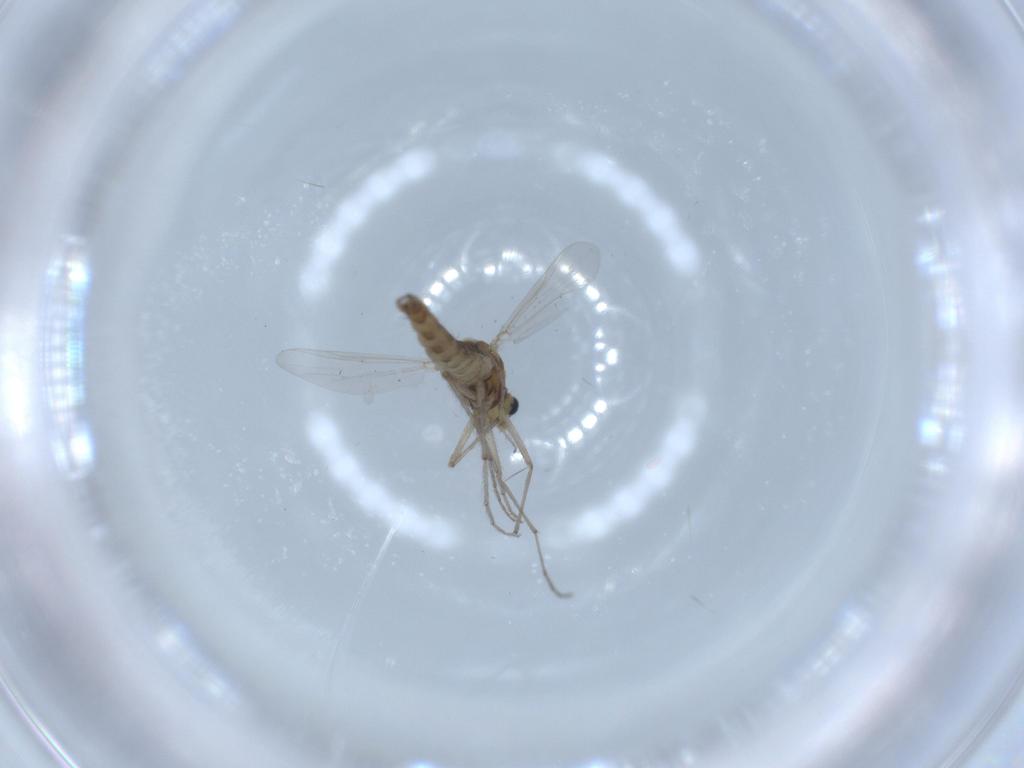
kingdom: Animalia
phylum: Arthropoda
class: Insecta
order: Diptera
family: Chironomidae
